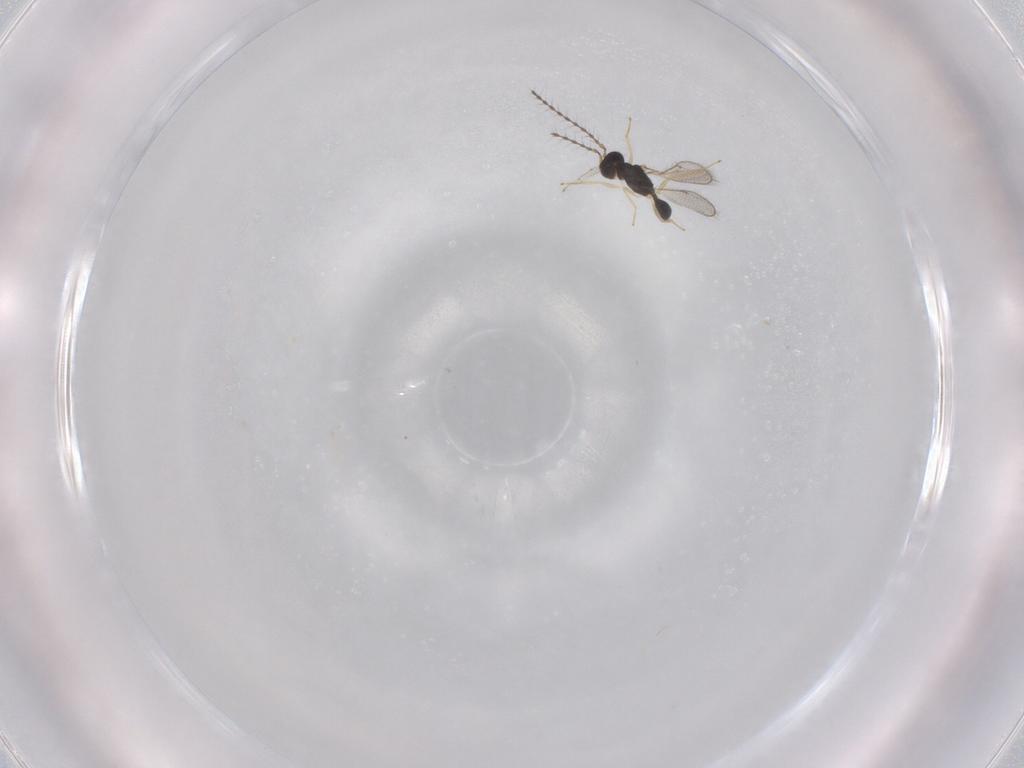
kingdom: Animalia
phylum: Arthropoda
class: Insecta
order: Hymenoptera
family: Diparidae
